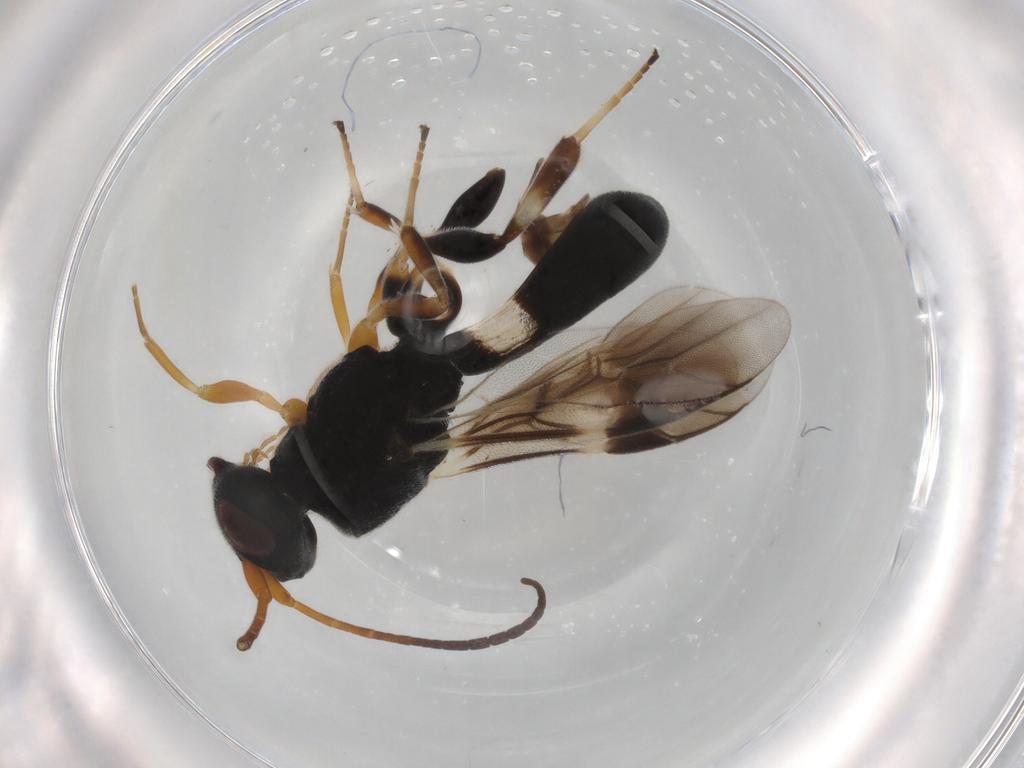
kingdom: Animalia
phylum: Arthropoda
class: Insecta
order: Hymenoptera
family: Braconidae
